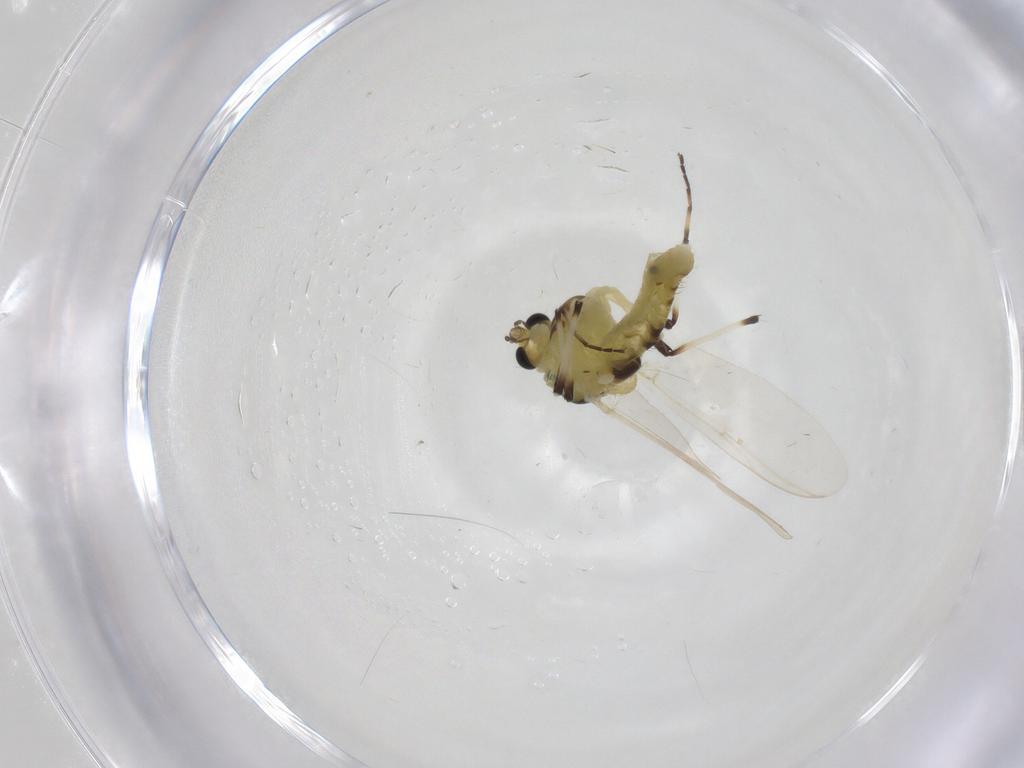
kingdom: Animalia
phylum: Arthropoda
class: Insecta
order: Diptera
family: Chironomidae
